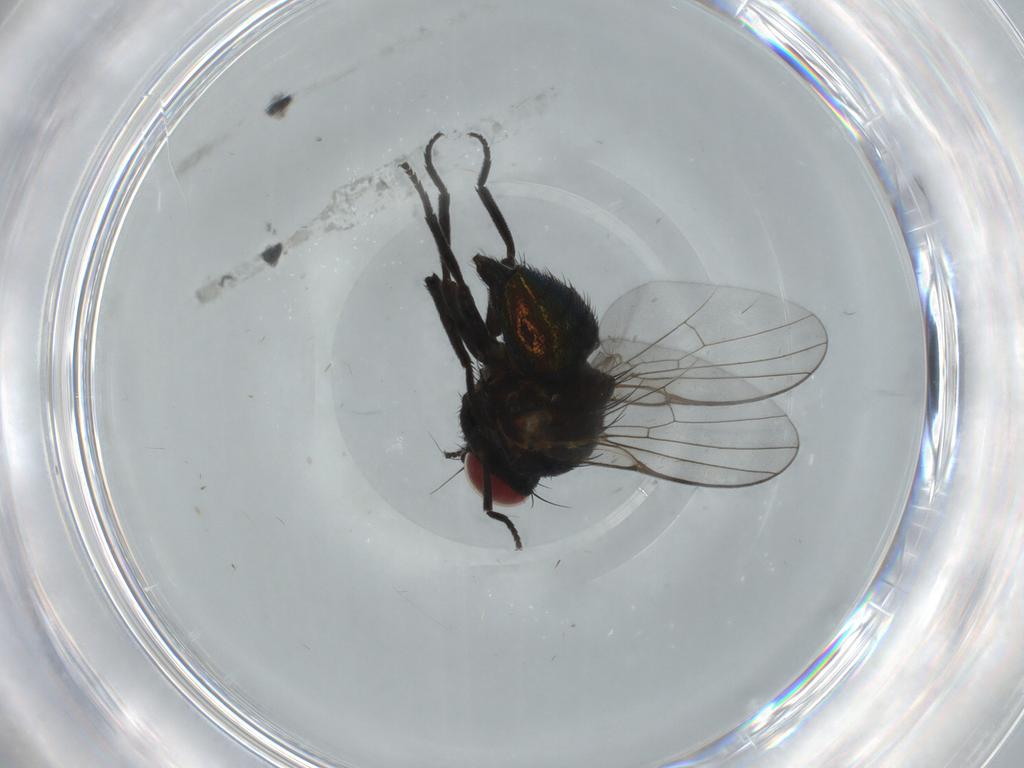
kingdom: Animalia
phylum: Arthropoda
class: Insecta
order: Diptera
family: Agromyzidae
